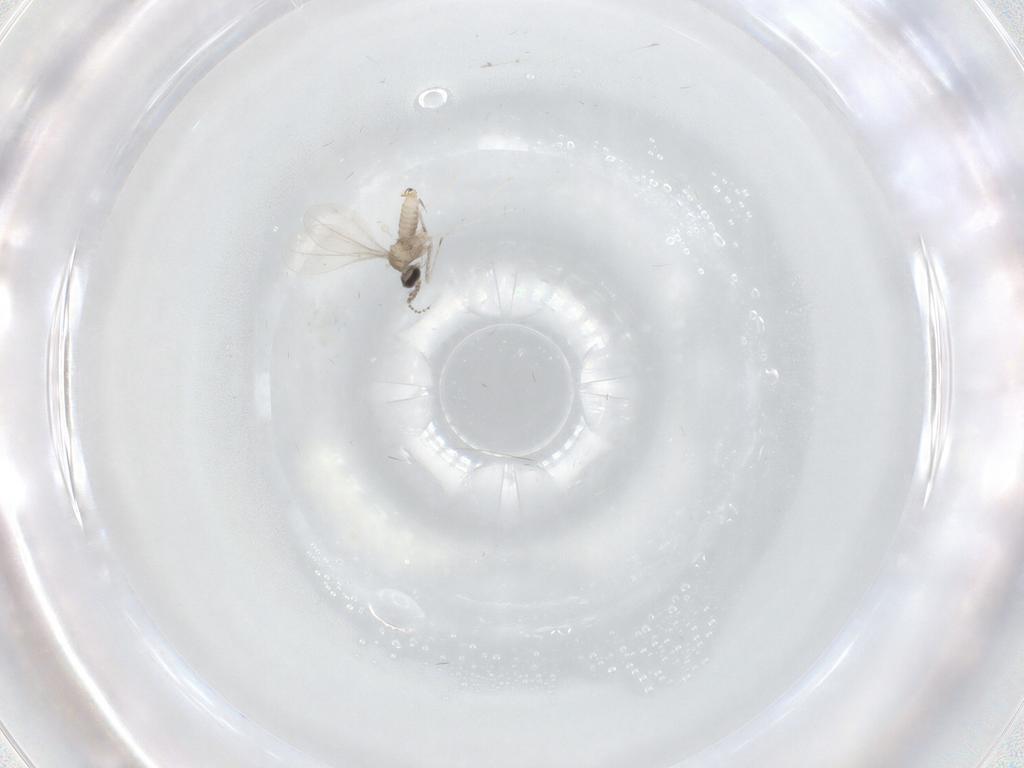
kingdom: Animalia
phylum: Arthropoda
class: Insecta
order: Diptera
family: Cecidomyiidae
